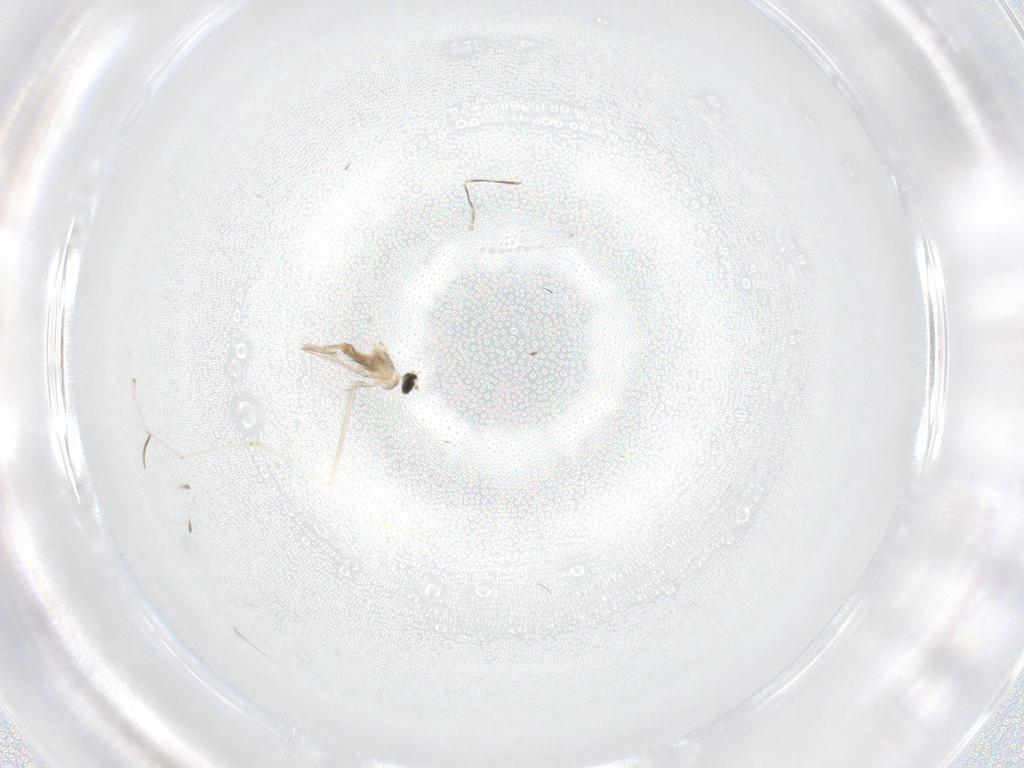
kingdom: Animalia
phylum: Arthropoda
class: Insecta
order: Diptera
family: Cecidomyiidae
